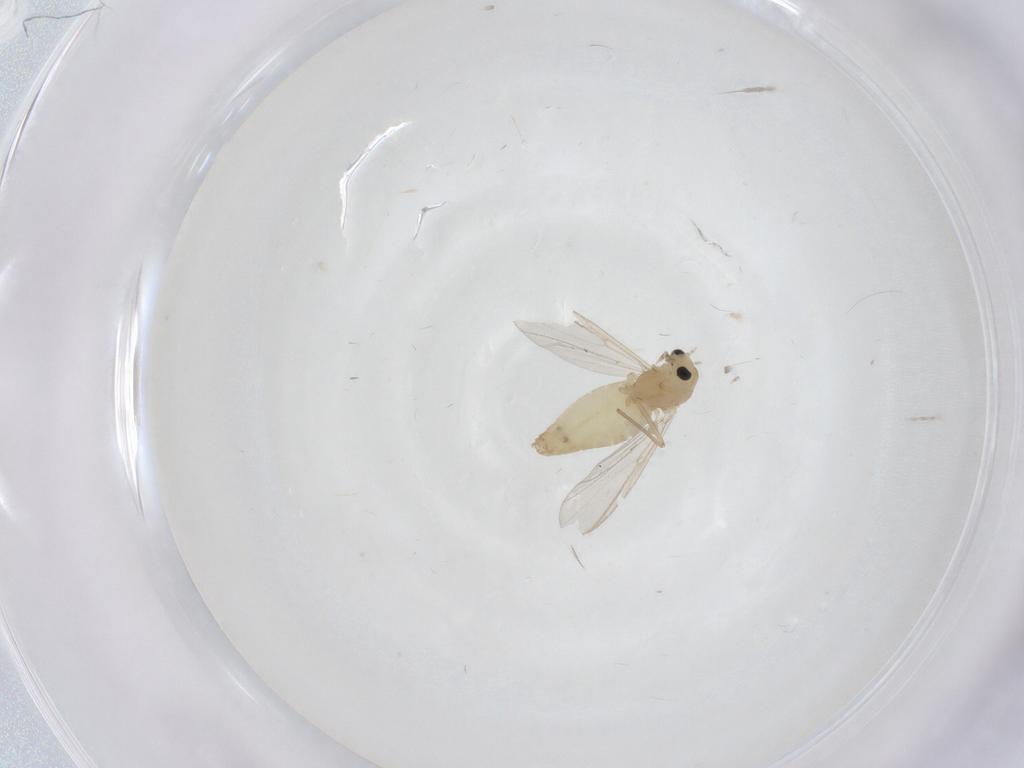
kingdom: Animalia
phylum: Arthropoda
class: Insecta
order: Diptera
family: Chironomidae
